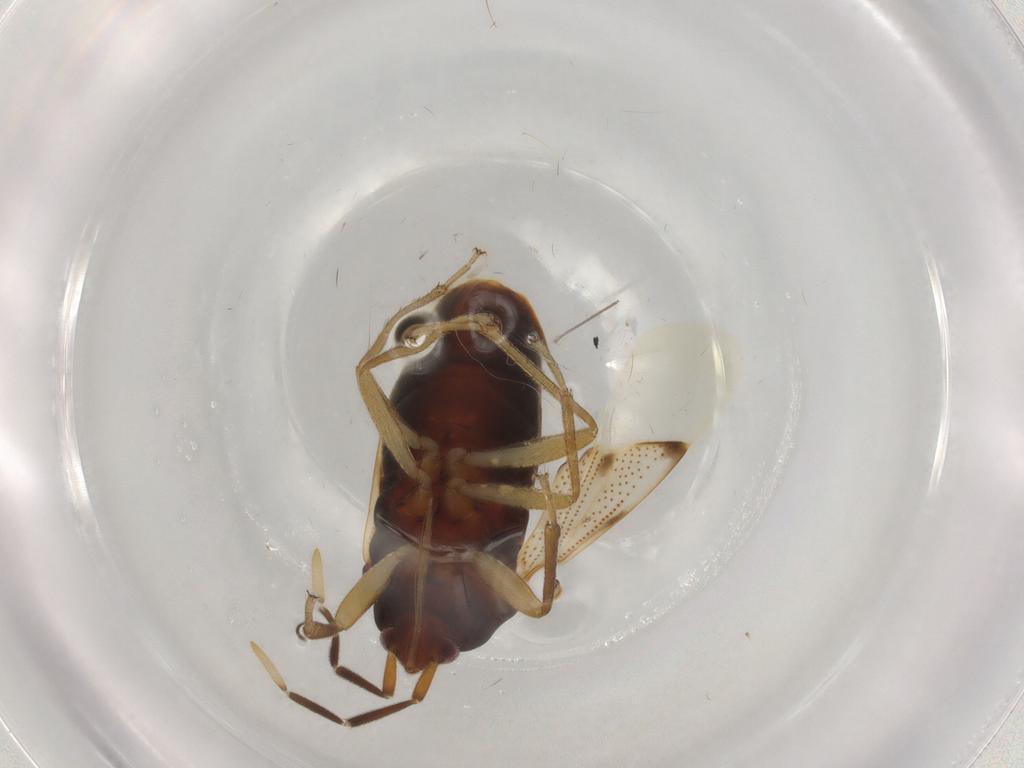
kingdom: Animalia
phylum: Arthropoda
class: Insecta
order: Hemiptera
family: Rhyparochromidae
